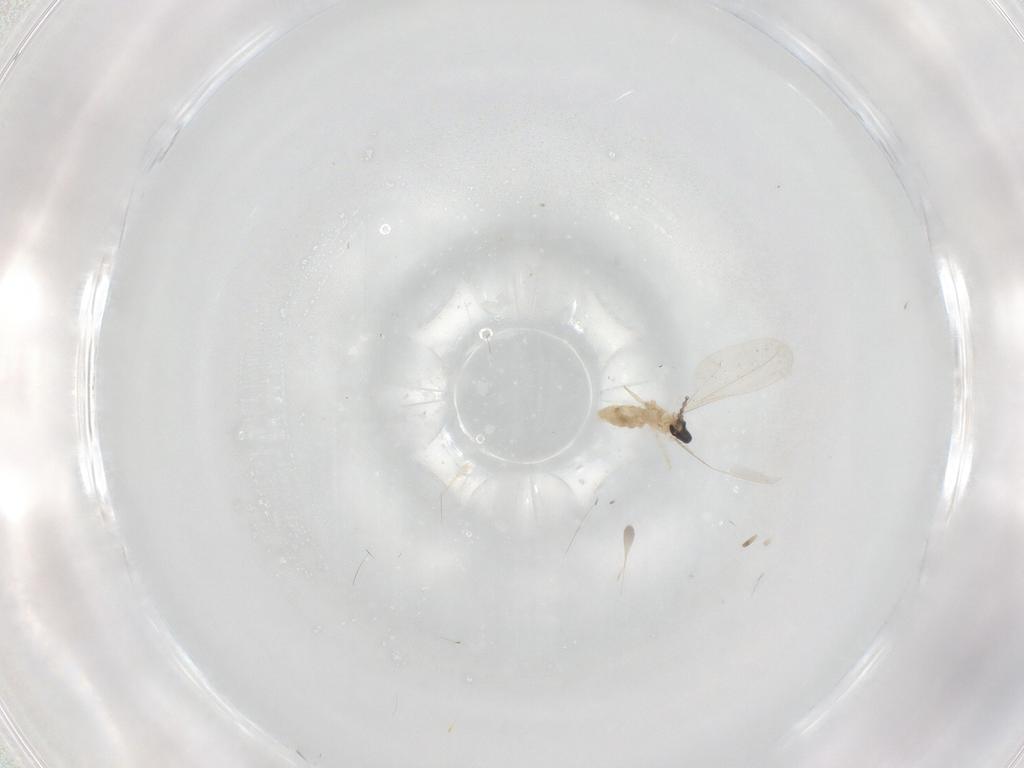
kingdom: Animalia
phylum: Arthropoda
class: Insecta
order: Diptera
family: Cecidomyiidae
